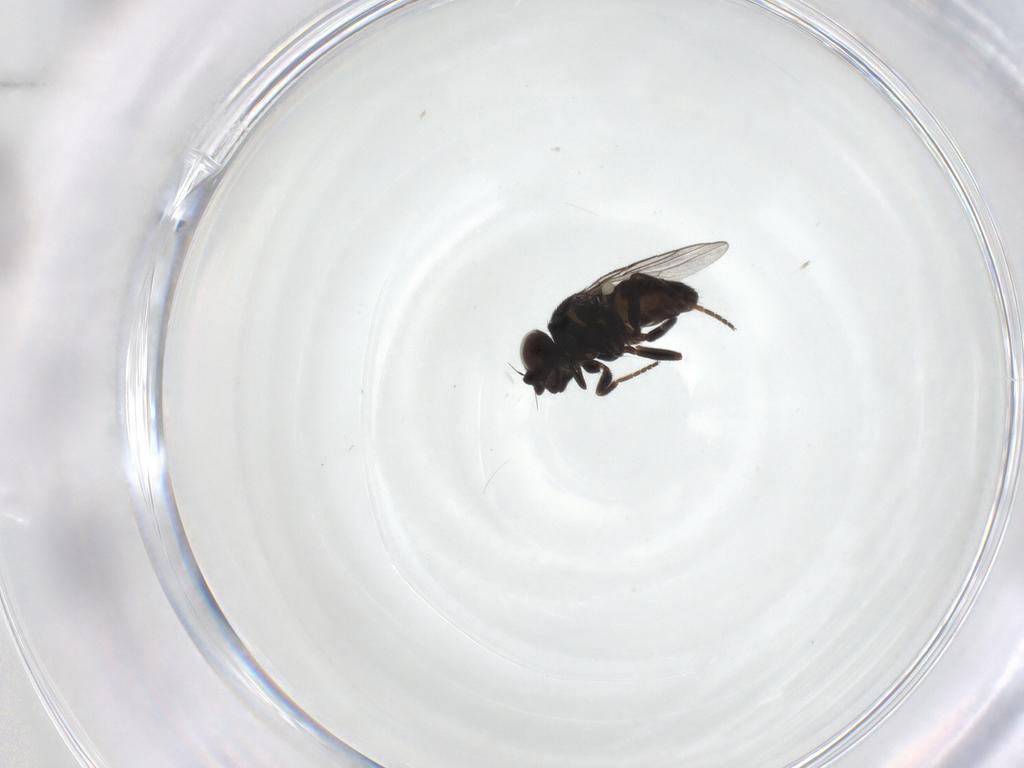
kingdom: Animalia
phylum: Arthropoda
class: Insecta
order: Diptera
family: Chloropidae
